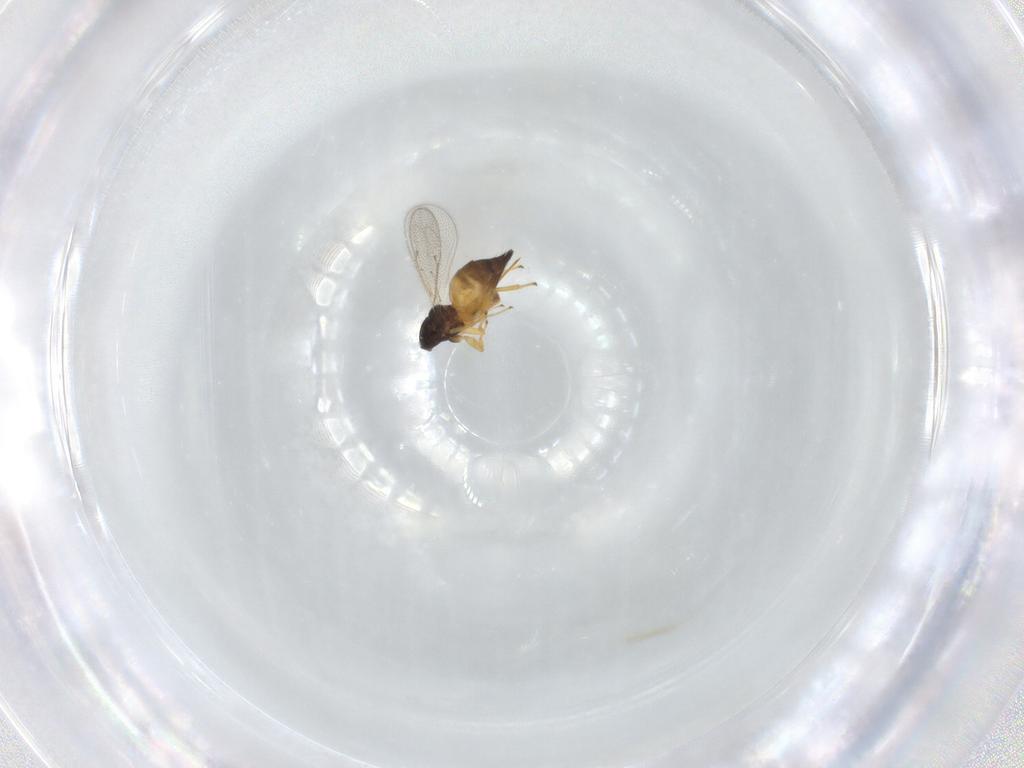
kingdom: Animalia
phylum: Arthropoda
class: Insecta
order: Hymenoptera
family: Eulophidae
